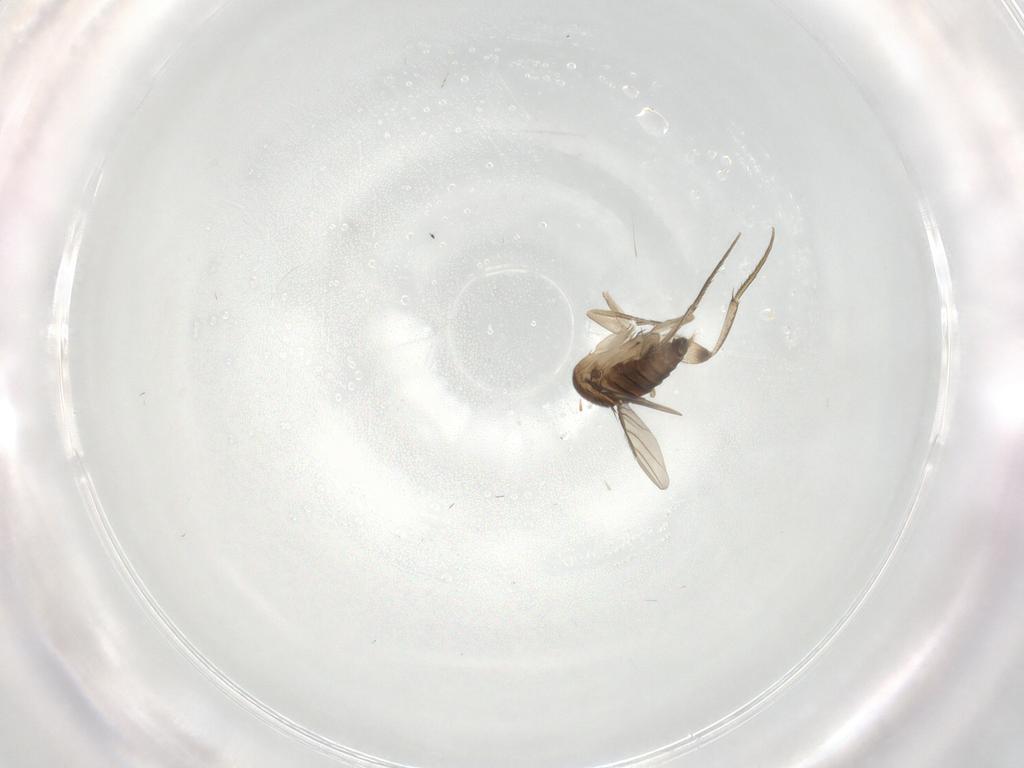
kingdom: Animalia
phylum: Arthropoda
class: Insecta
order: Diptera
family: Phoridae
